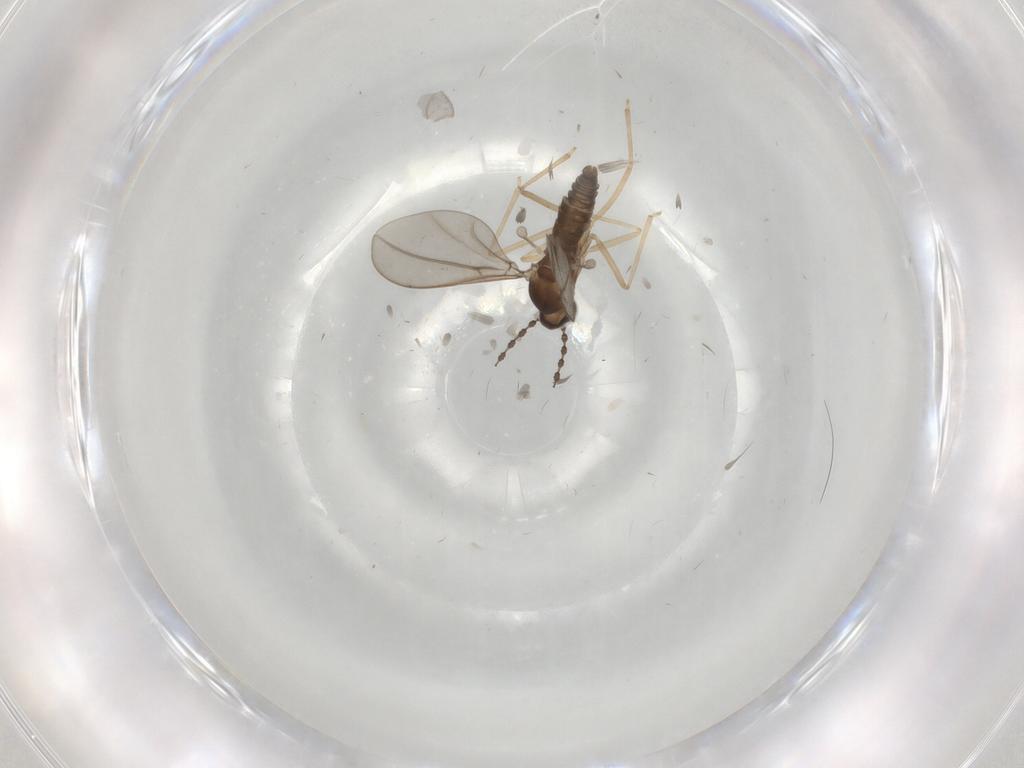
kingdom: Animalia
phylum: Arthropoda
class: Insecta
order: Diptera
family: Cecidomyiidae
